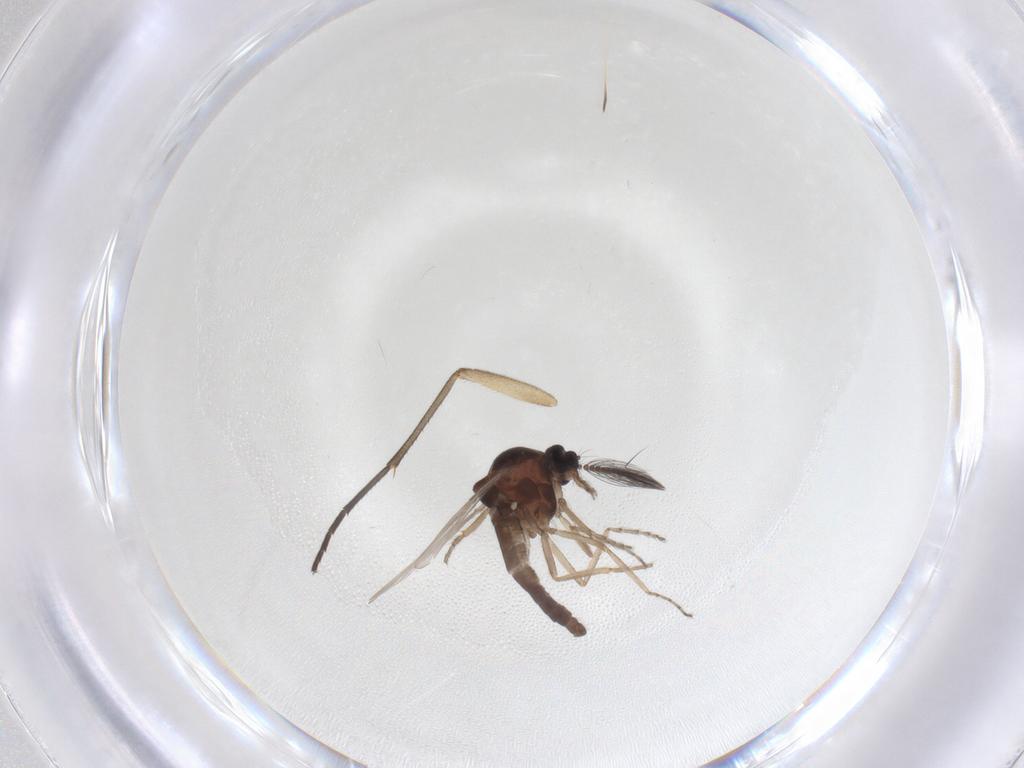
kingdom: Animalia
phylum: Arthropoda
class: Insecta
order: Diptera
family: Ceratopogonidae
